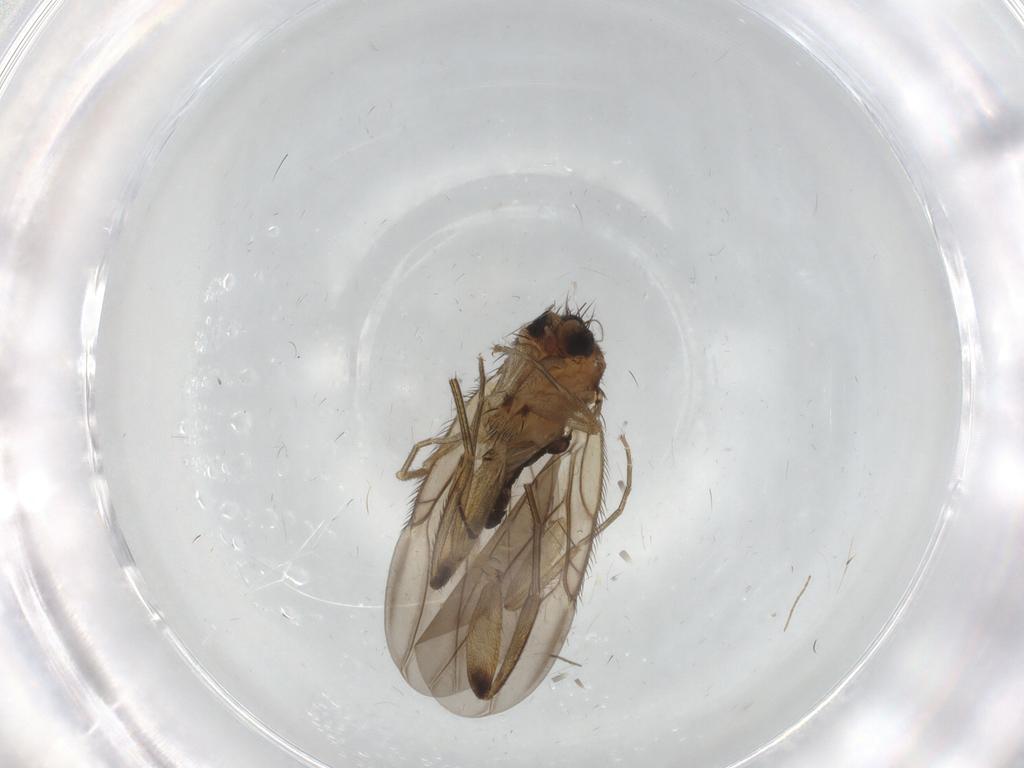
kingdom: Animalia
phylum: Arthropoda
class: Insecta
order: Diptera
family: Phoridae
